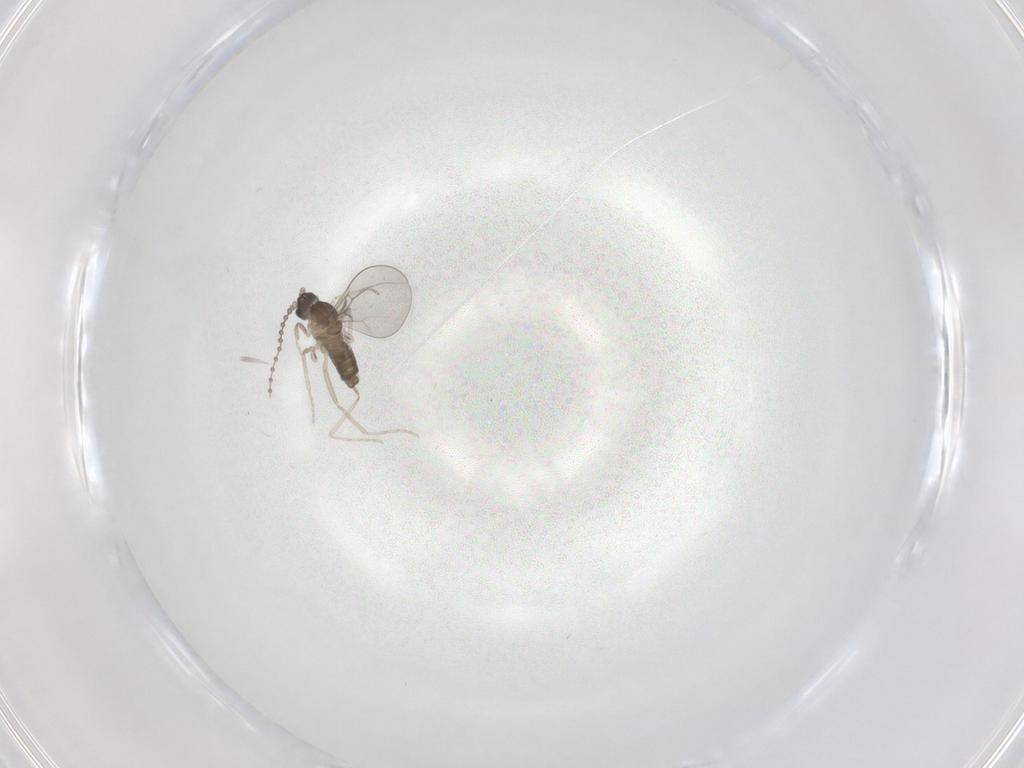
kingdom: Animalia
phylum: Arthropoda
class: Insecta
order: Diptera
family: Cecidomyiidae
